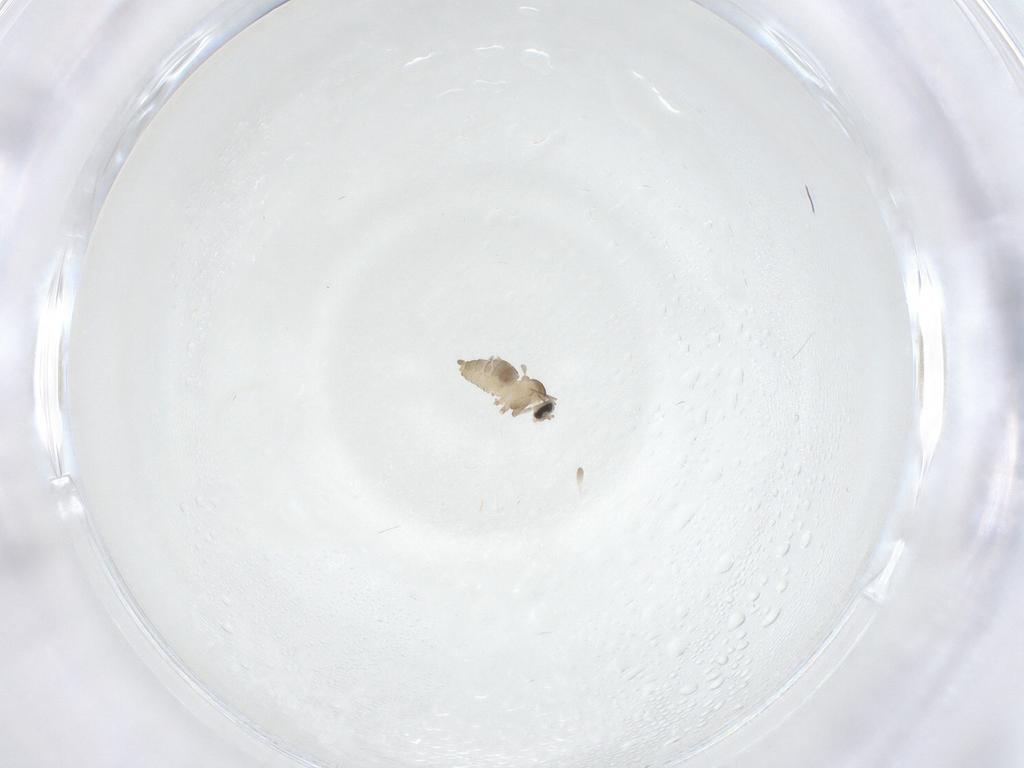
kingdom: Animalia
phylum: Arthropoda
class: Insecta
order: Diptera
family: Cecidomyiidae
